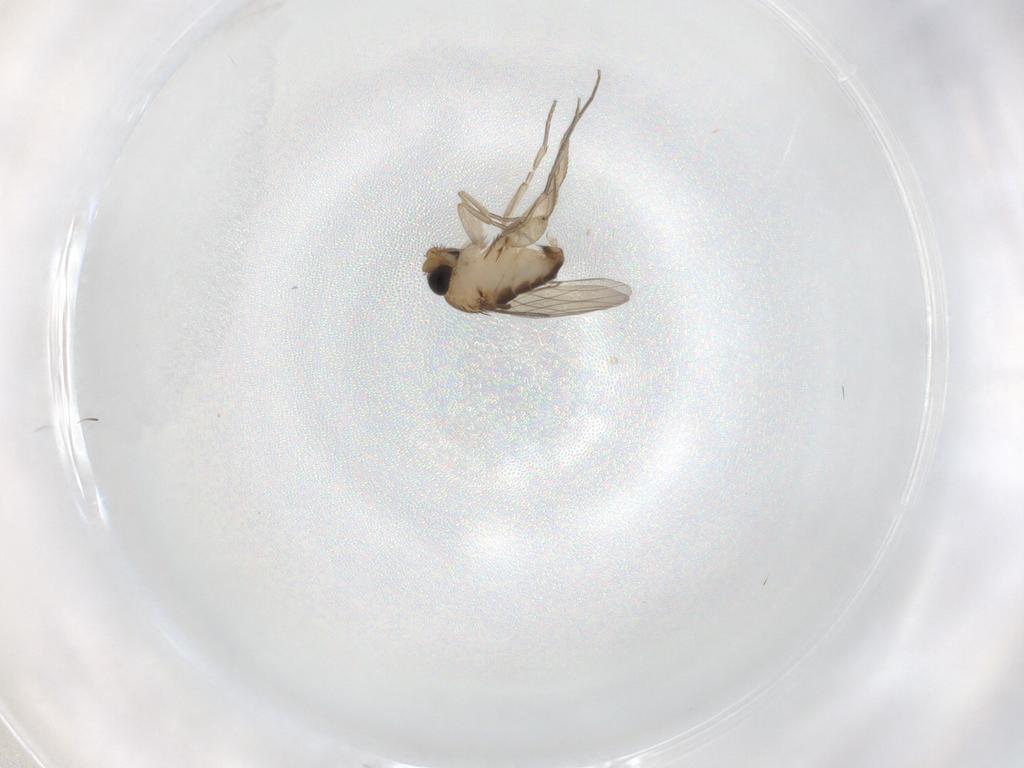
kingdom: Animalia
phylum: Arthropoda
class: Insecta
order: Diptera
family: Phoridae
